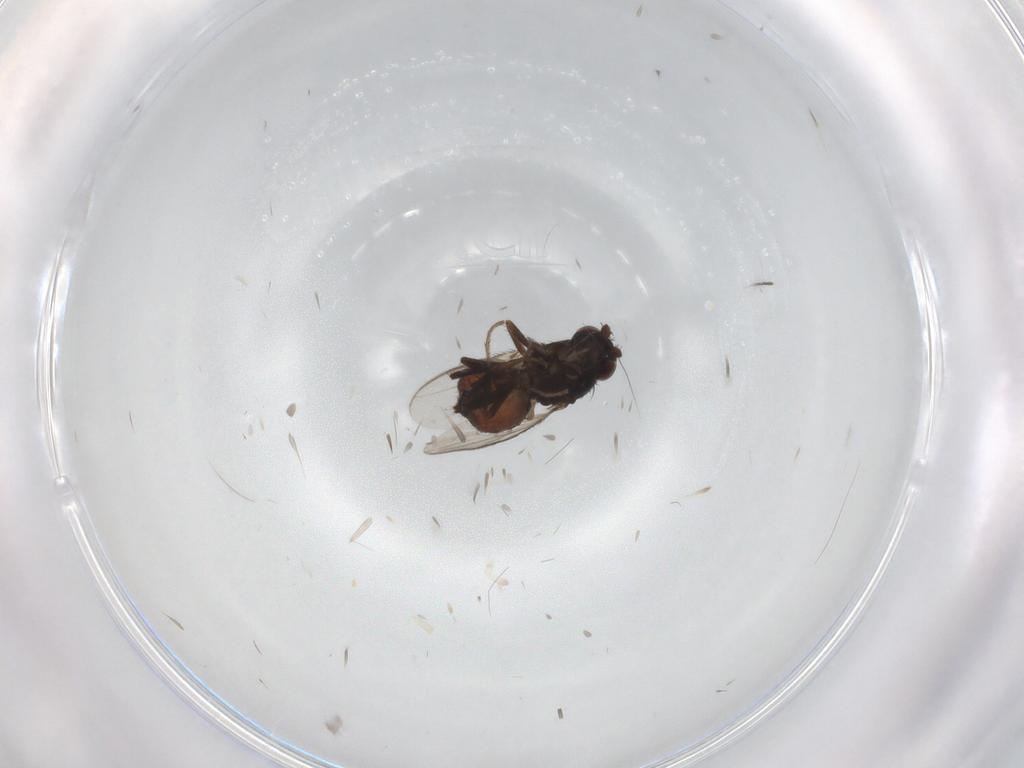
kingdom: Animalia
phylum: Arthropoda
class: Insecta
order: Diptera
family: Sphaeroceridae
